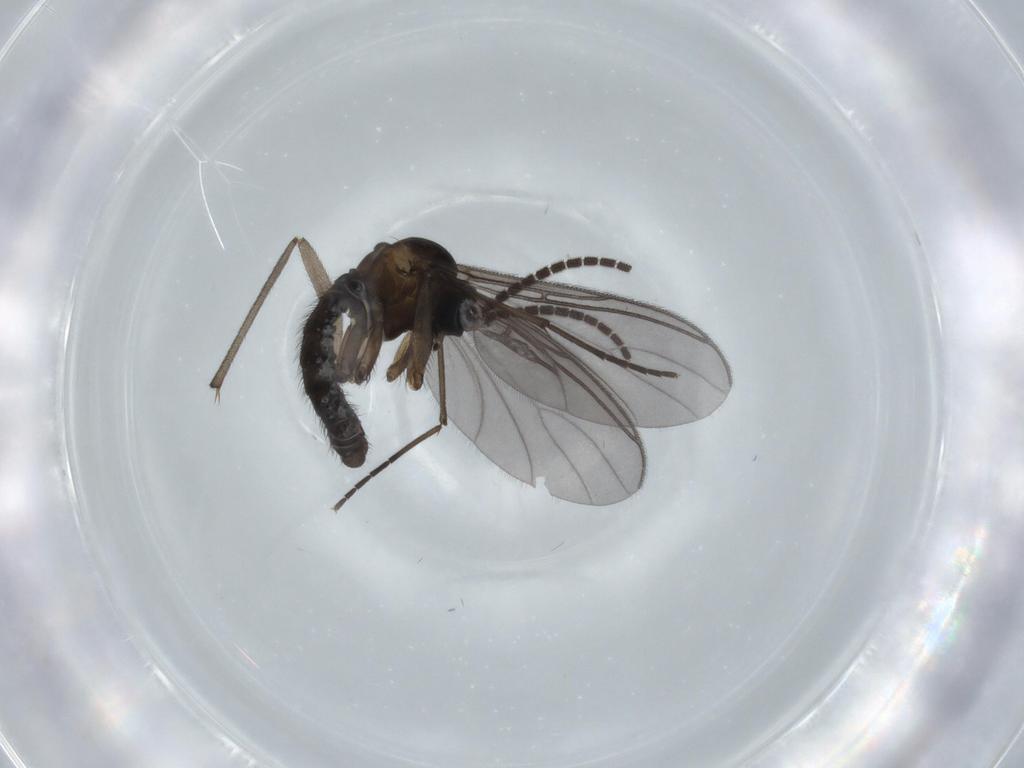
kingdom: Animalia
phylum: Arthropoda
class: Insecta
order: Diptera
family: Sciaridae
